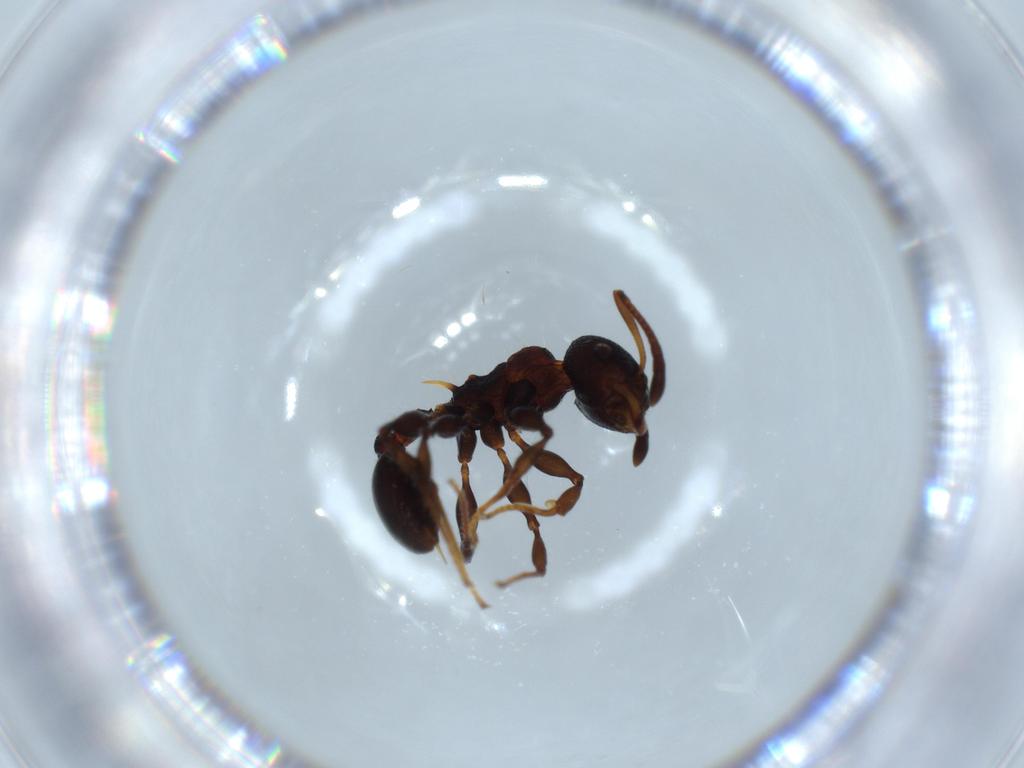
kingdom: Animalia
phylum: Arthropoda
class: Insecta
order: Hymenoptera
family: Formicidae
